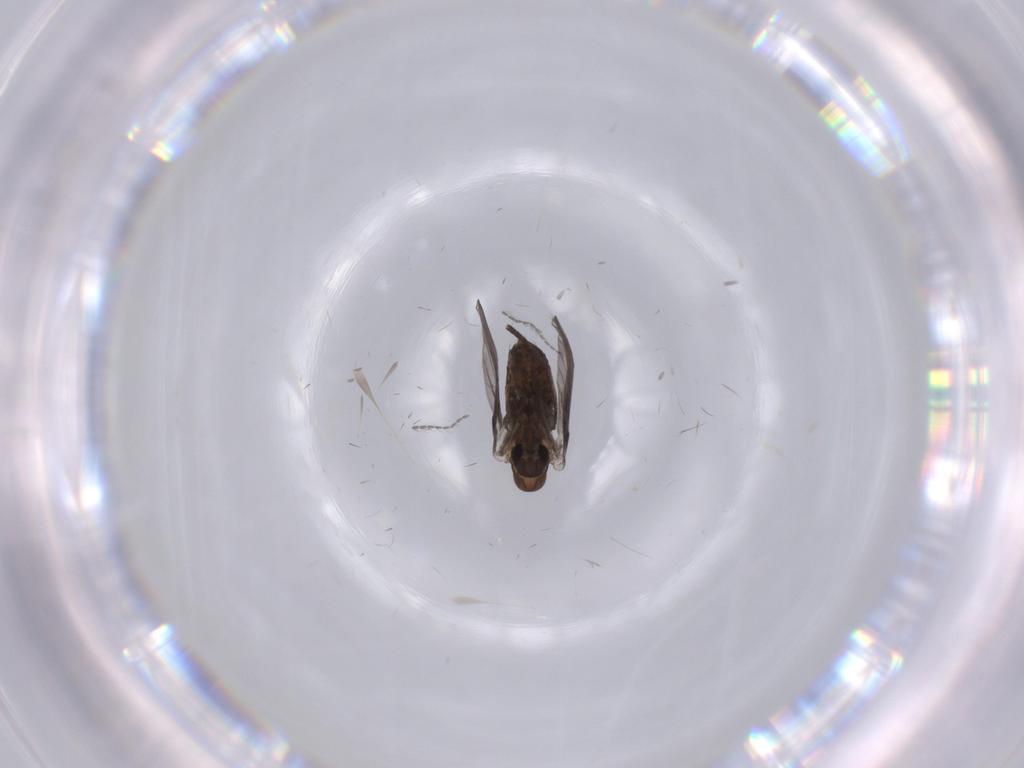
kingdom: Animalia
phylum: Arthropoda
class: Insecta
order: Diptera
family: Psychodidae
